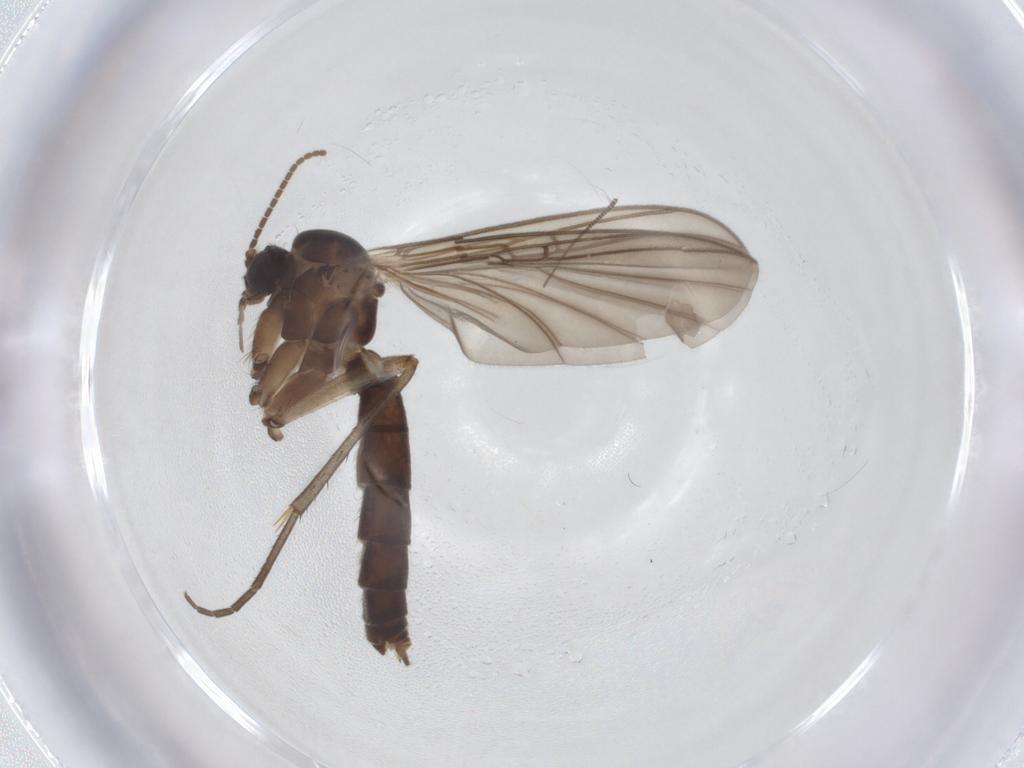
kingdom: Animalia
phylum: Arthropoda
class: Insecta
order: Diptera
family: Mycetophilidae
